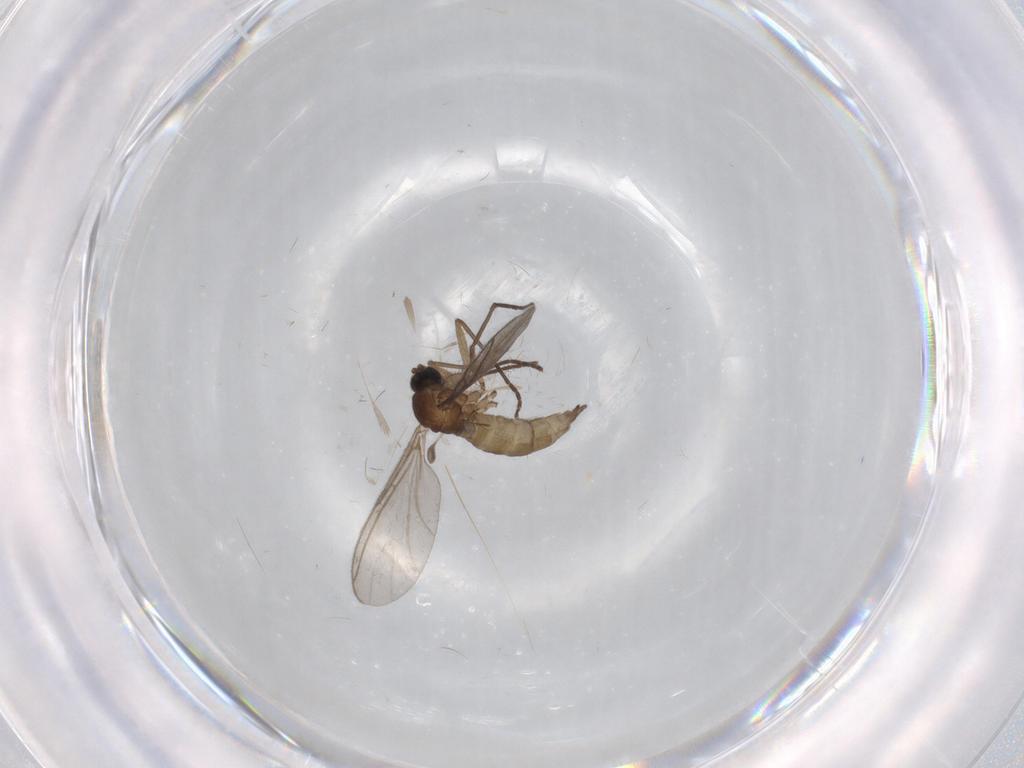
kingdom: Animalia
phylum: Arthropoda
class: Insecta
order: Diptera
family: Sciaridae
